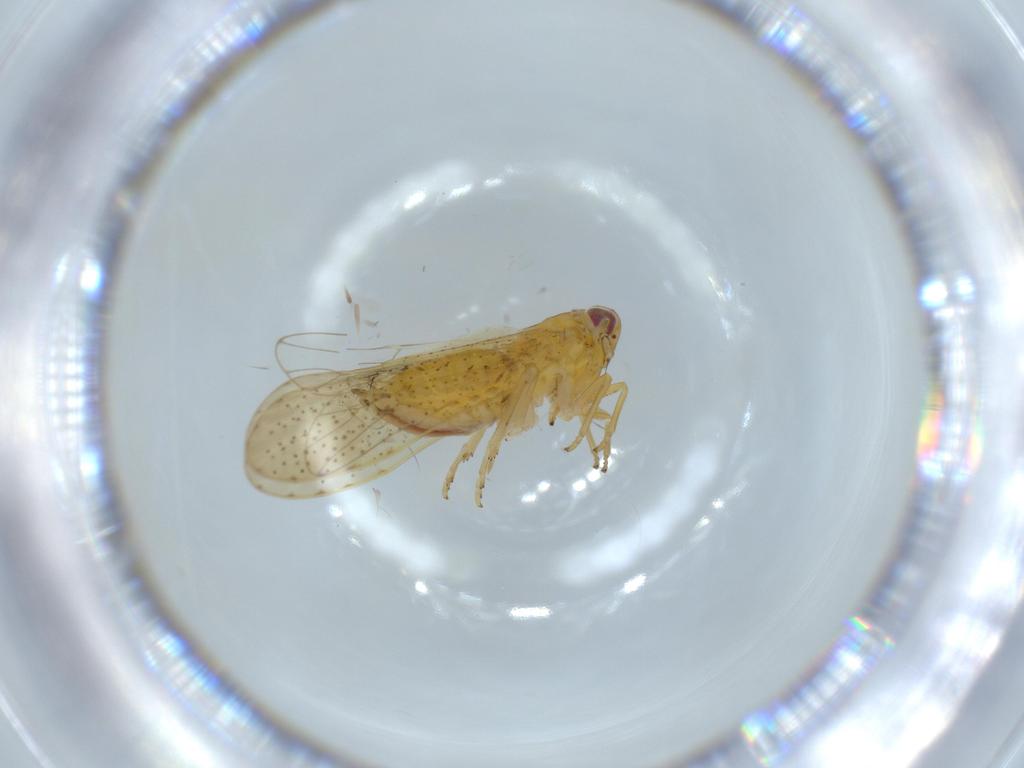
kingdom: Animalia
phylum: Arthropoda
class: Insecta
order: Hemiptera
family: Delphacidae
